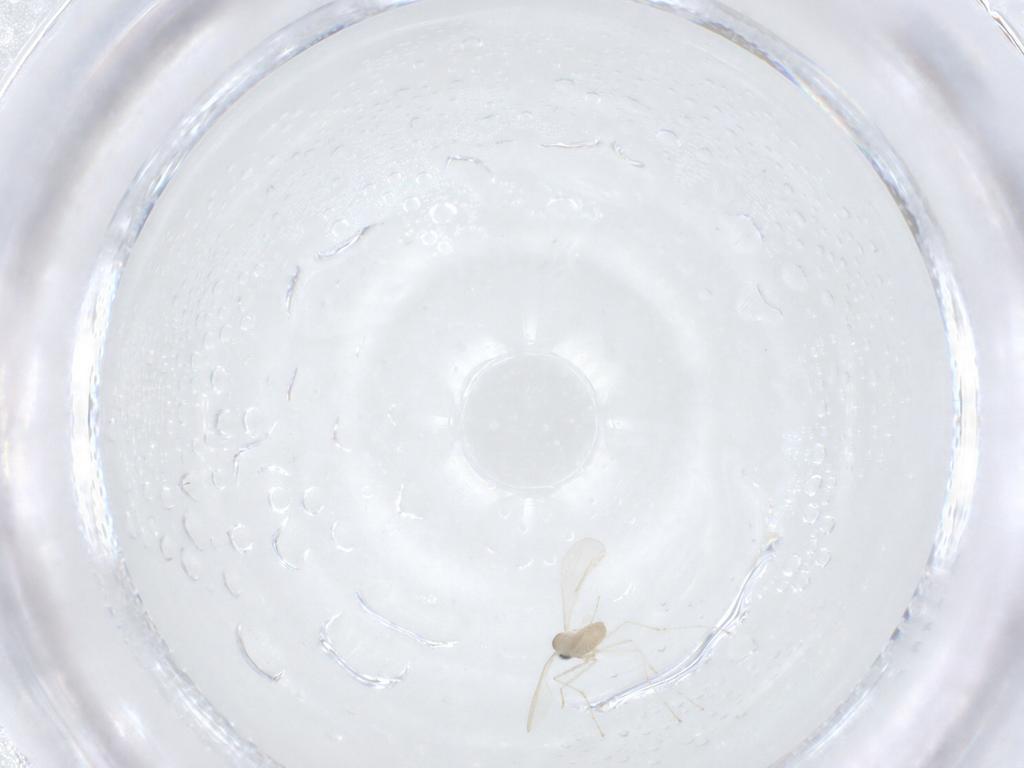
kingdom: Animalia
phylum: Arthropoda
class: Insecta
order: Diptera
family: Cecidomyiidae
